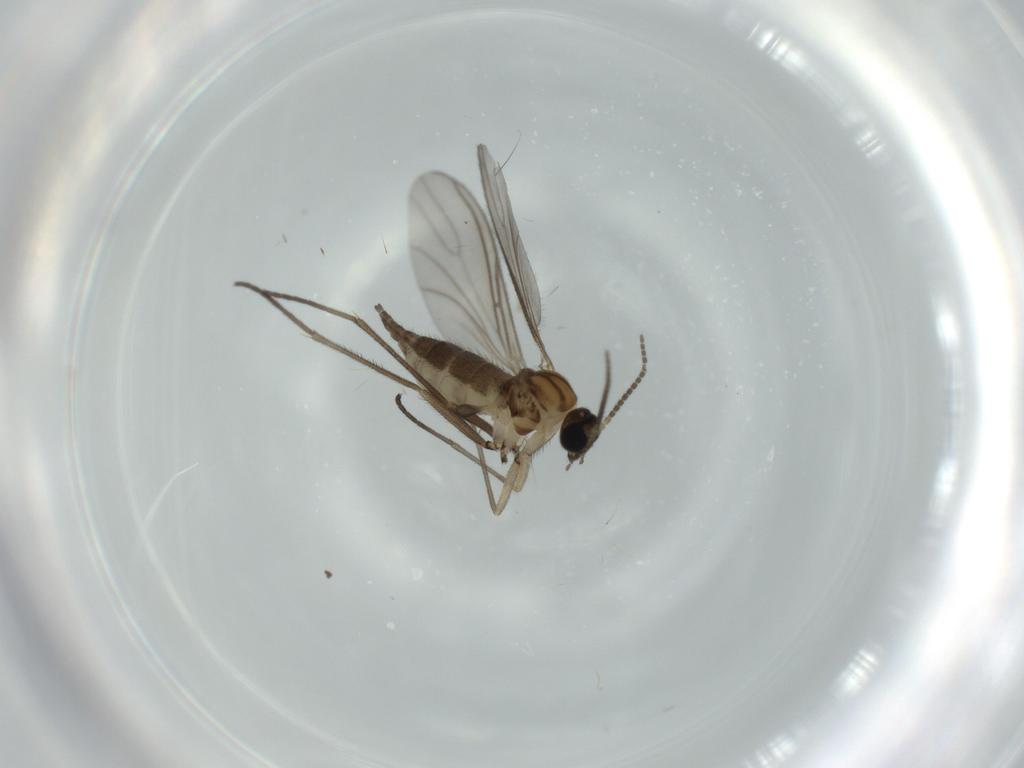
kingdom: Animalia
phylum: Arthropoda
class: Insecta
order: Diptera
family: Sciaridae
